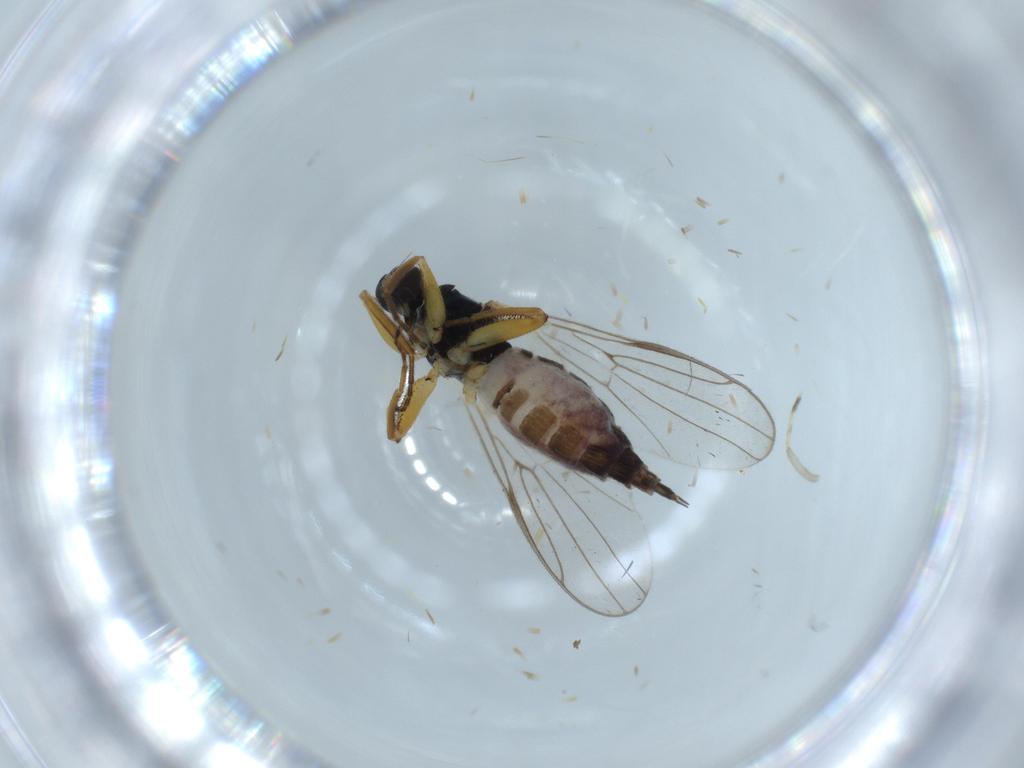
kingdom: Animalia
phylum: Arthropoda
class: Insecta
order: Diptera
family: Hybotidae
